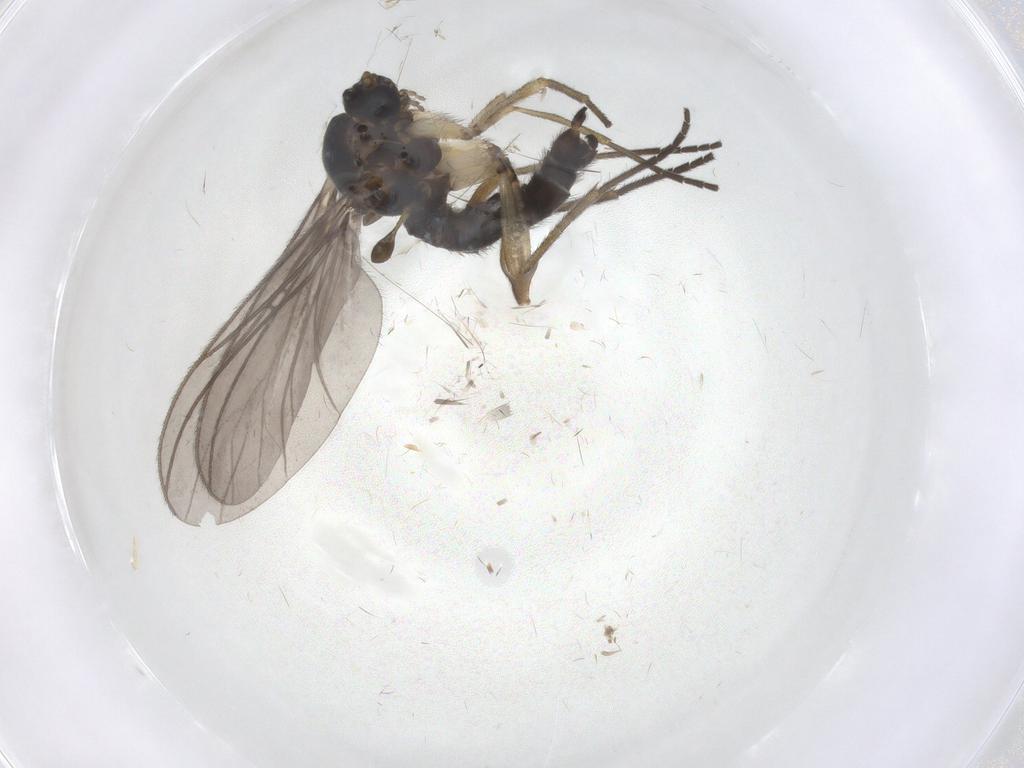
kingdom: Animalia
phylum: Arthropoda
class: Insecta
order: Diptera
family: Sciaridae
